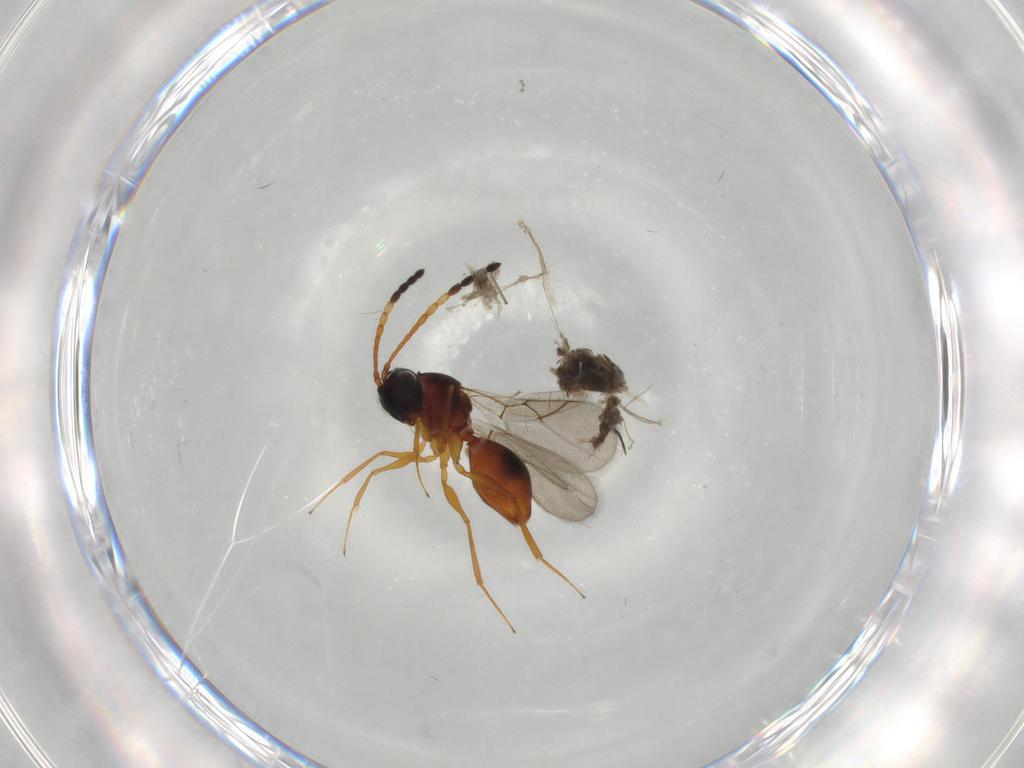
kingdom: Animalia
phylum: Arthropoda
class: Insecta
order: Hymenoptera
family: Figitidae
